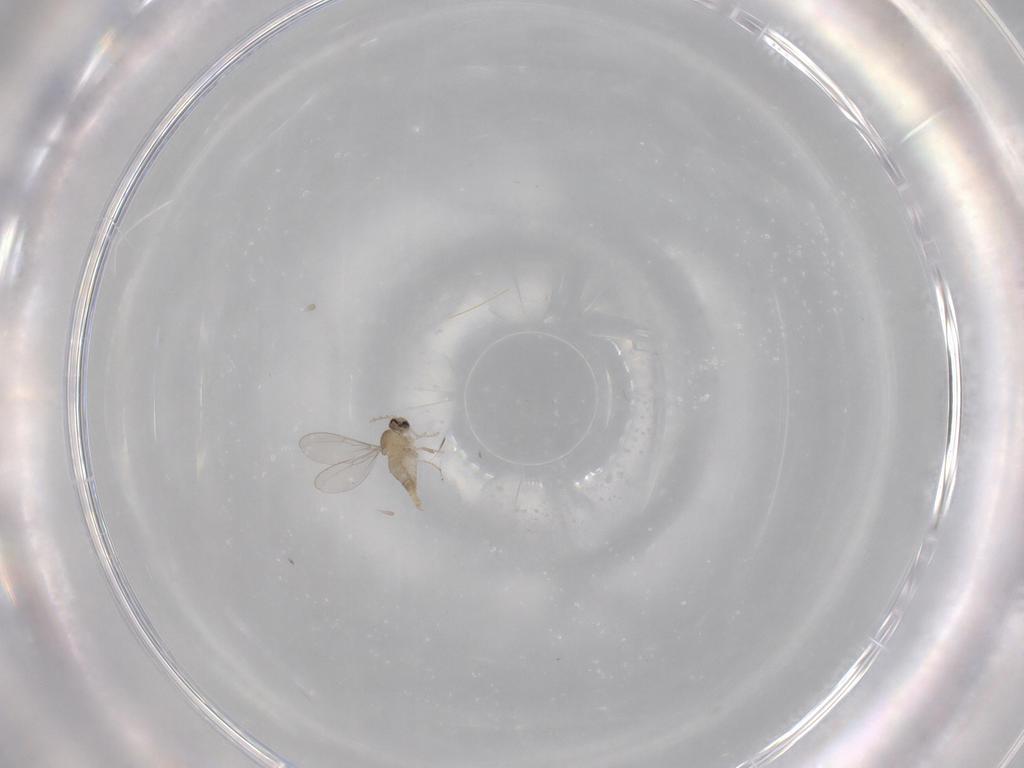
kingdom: Animalia
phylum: Arthropoda
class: Insecta
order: Diptera
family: Cecidomyiidae
